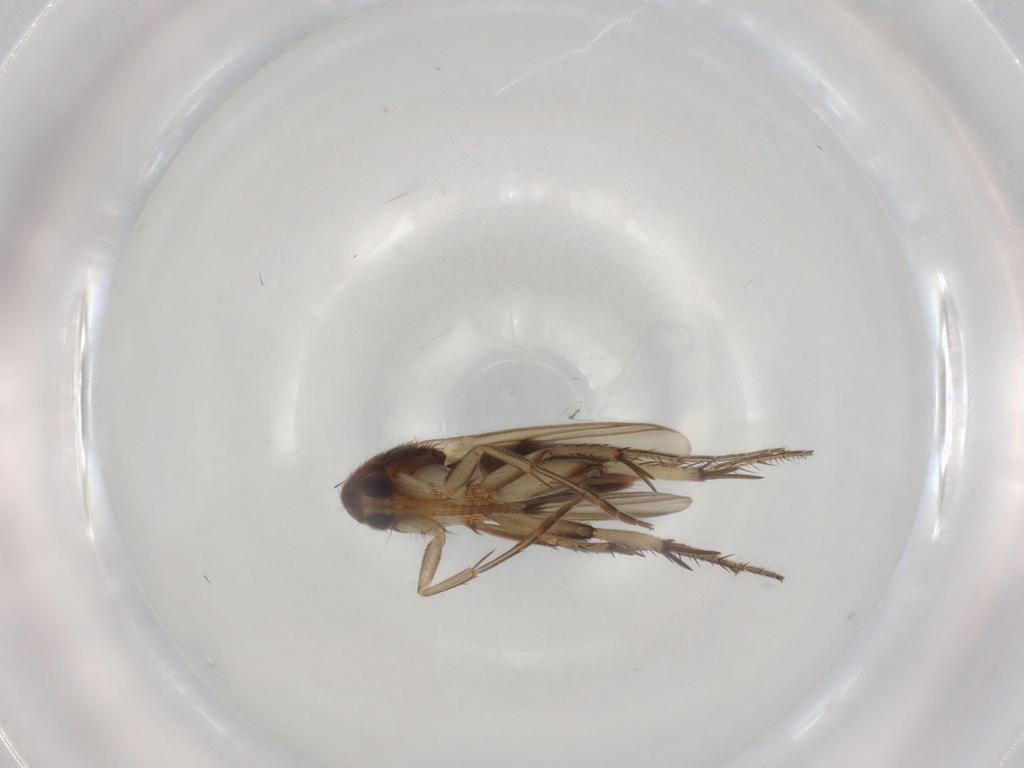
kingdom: Animalia
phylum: Arthropoda
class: Insecta
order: Diptera
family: Mycetophilidae
